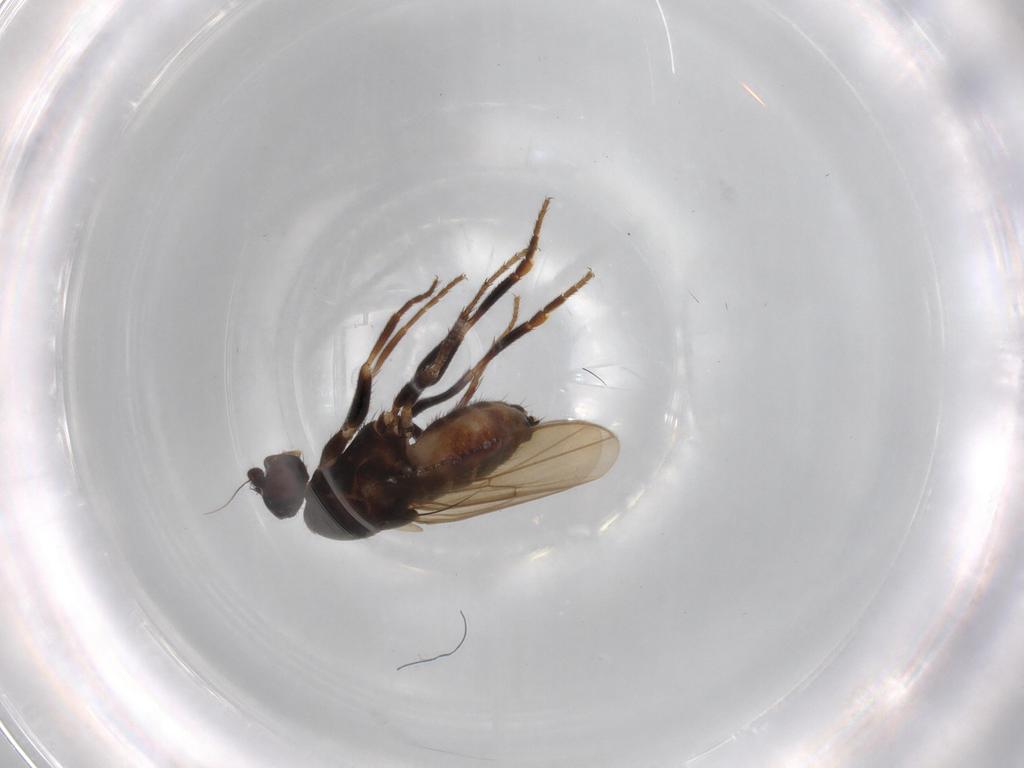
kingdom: Animalia
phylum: Arthropoda
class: Insecta
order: Diptera
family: Sphaeroceridae
